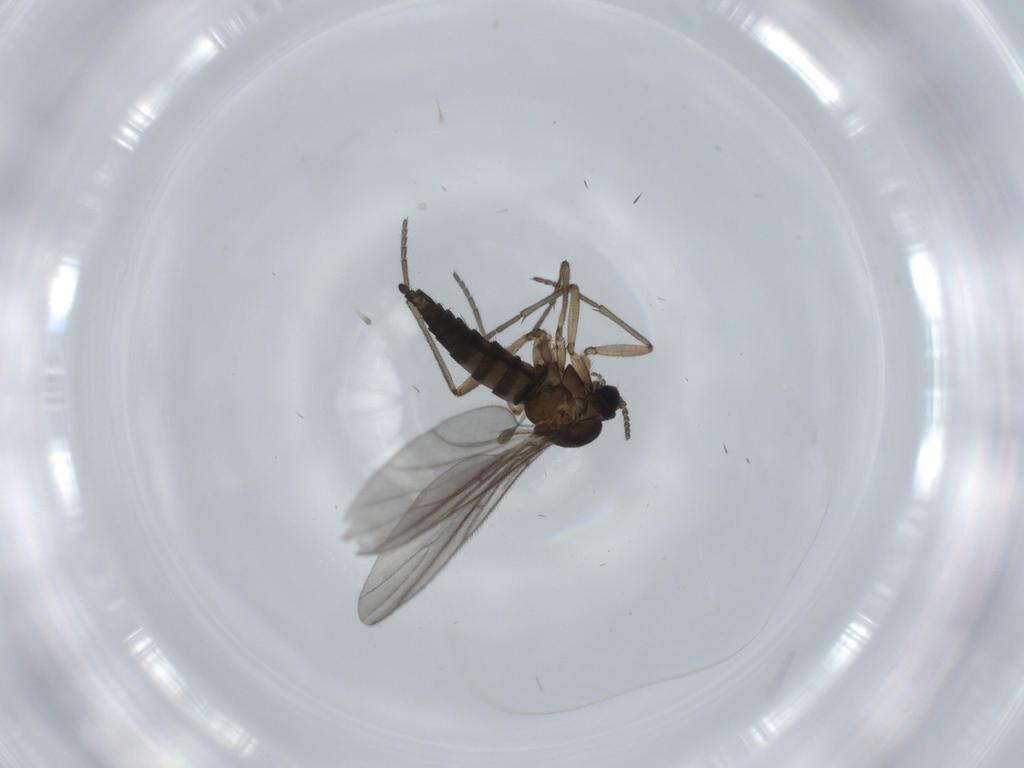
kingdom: Animalia
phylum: Arthropoda
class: Insecta
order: Diptera
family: Sciaridae
